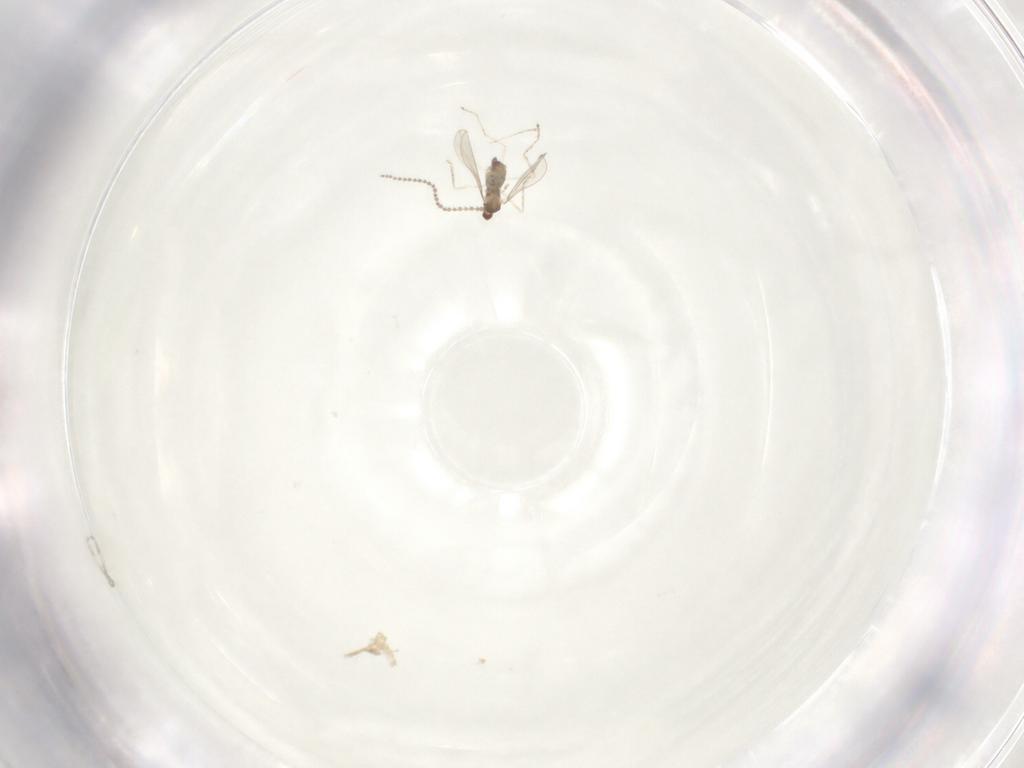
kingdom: Animalia
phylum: Arthropoda
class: Insecta
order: Diptera
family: Cecidomyiidae
